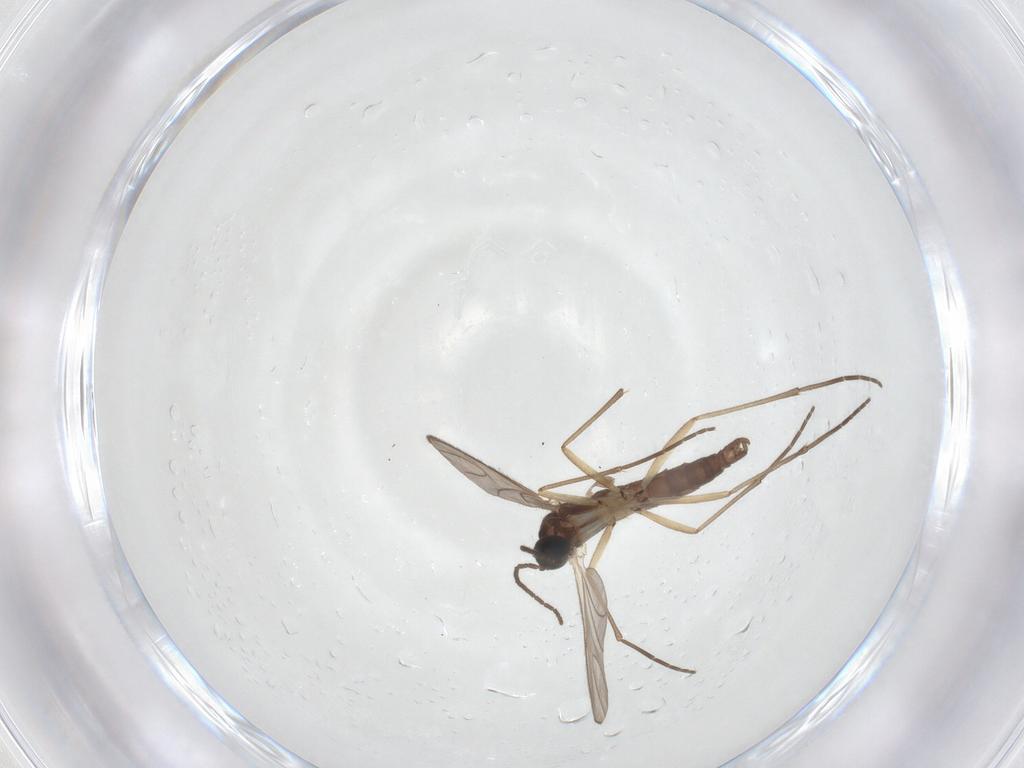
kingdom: Animalia
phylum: Arthropoda
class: Insecta
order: Diptera
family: Sciaridae
